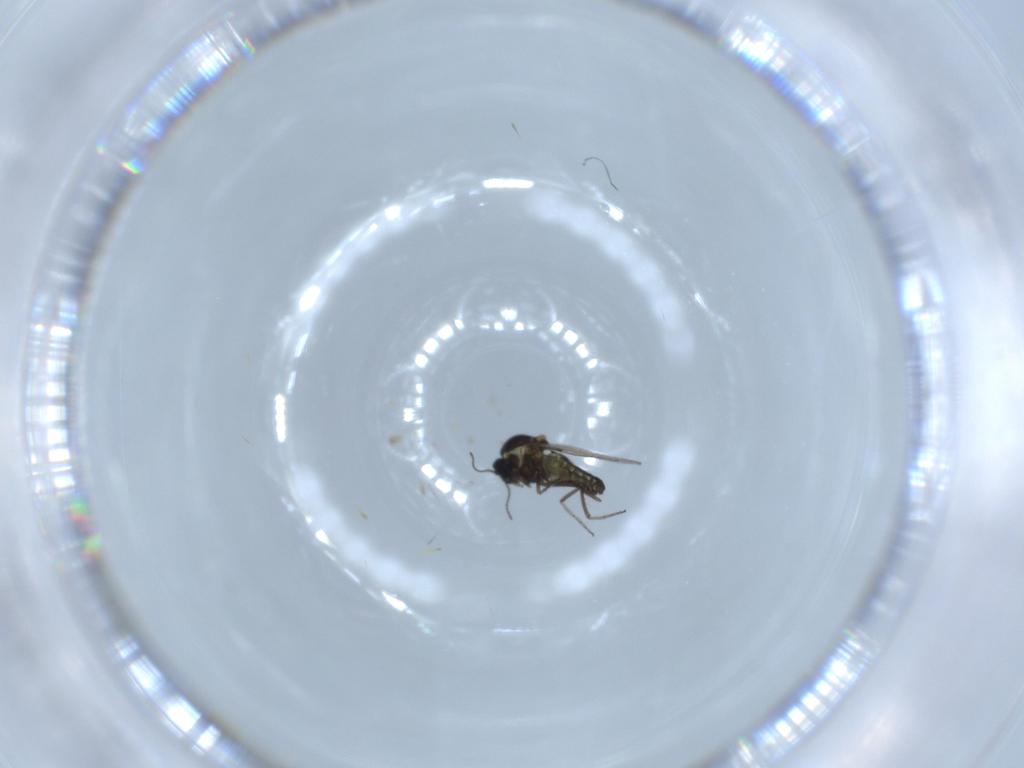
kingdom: Animalia
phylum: Arthropoda
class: Insecta
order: Diptera
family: Ceratopogonidae
